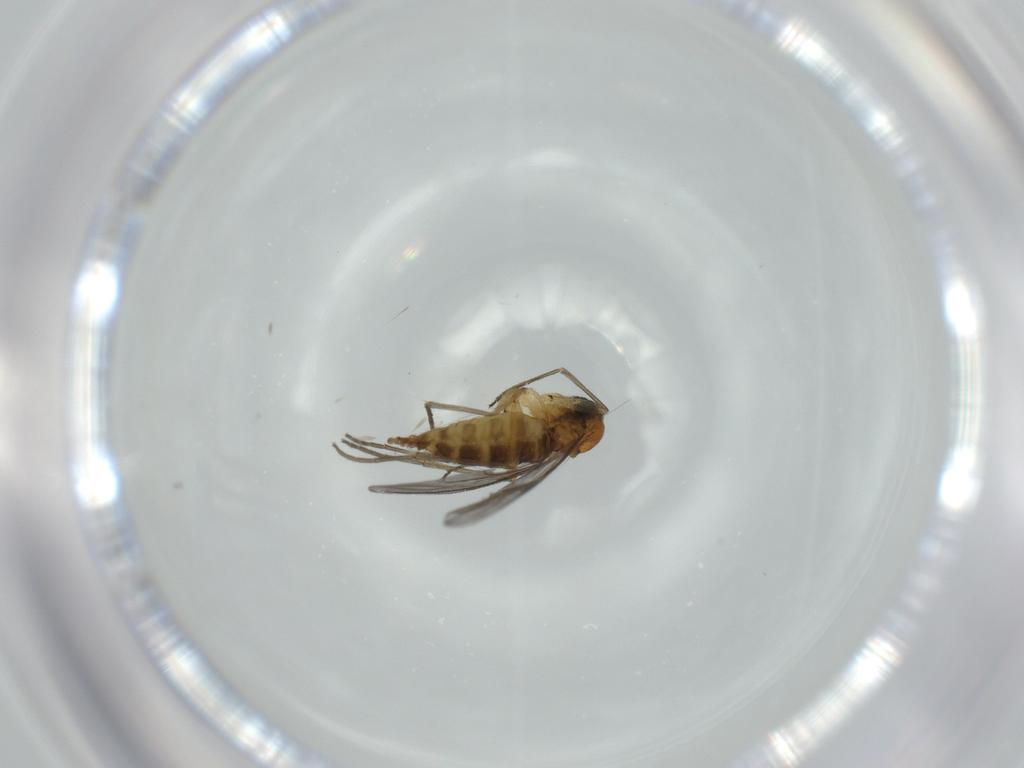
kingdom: Animalia
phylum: Arthropoda
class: Insecta
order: Diptera
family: Sciaridae
